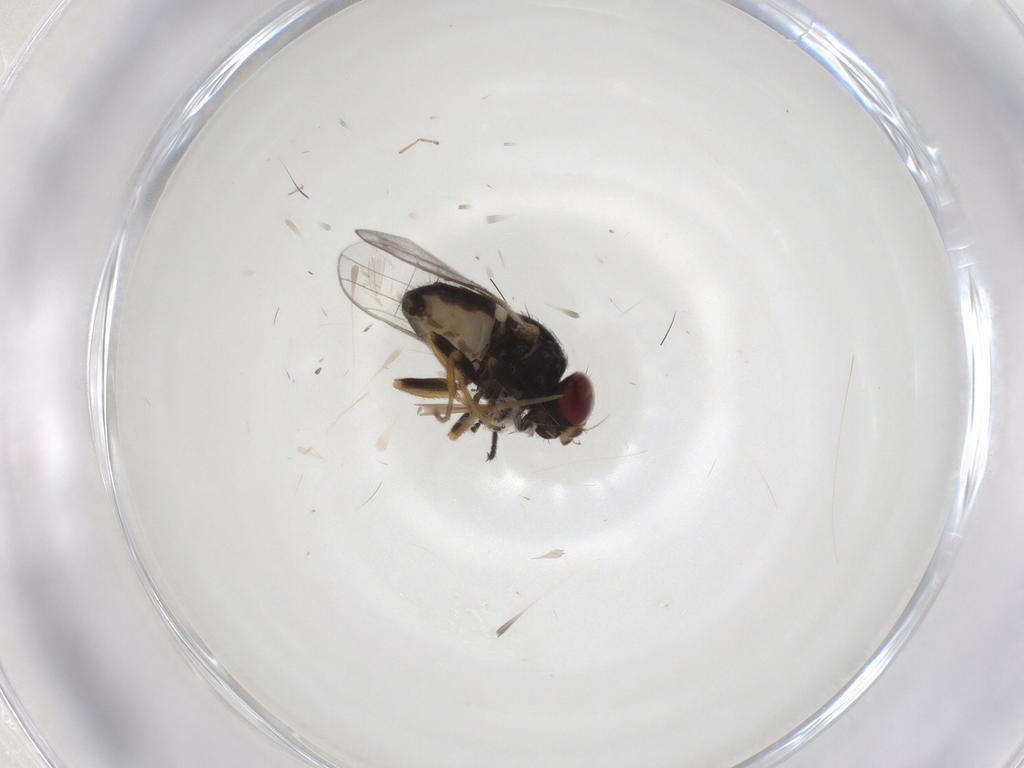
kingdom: Animalia
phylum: Arthropoda
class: Insecta
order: Diptera
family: Chloropidae
